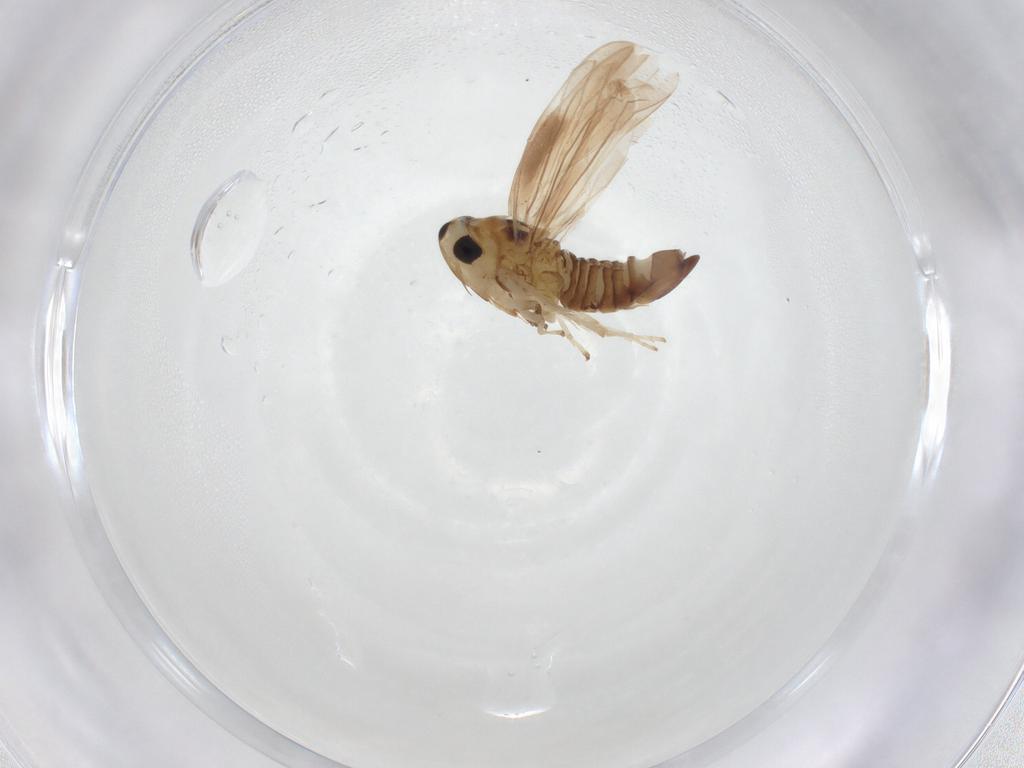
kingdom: Animalia
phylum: Arthropoda
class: Insecta
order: Hemiptera
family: Cicadellidae
